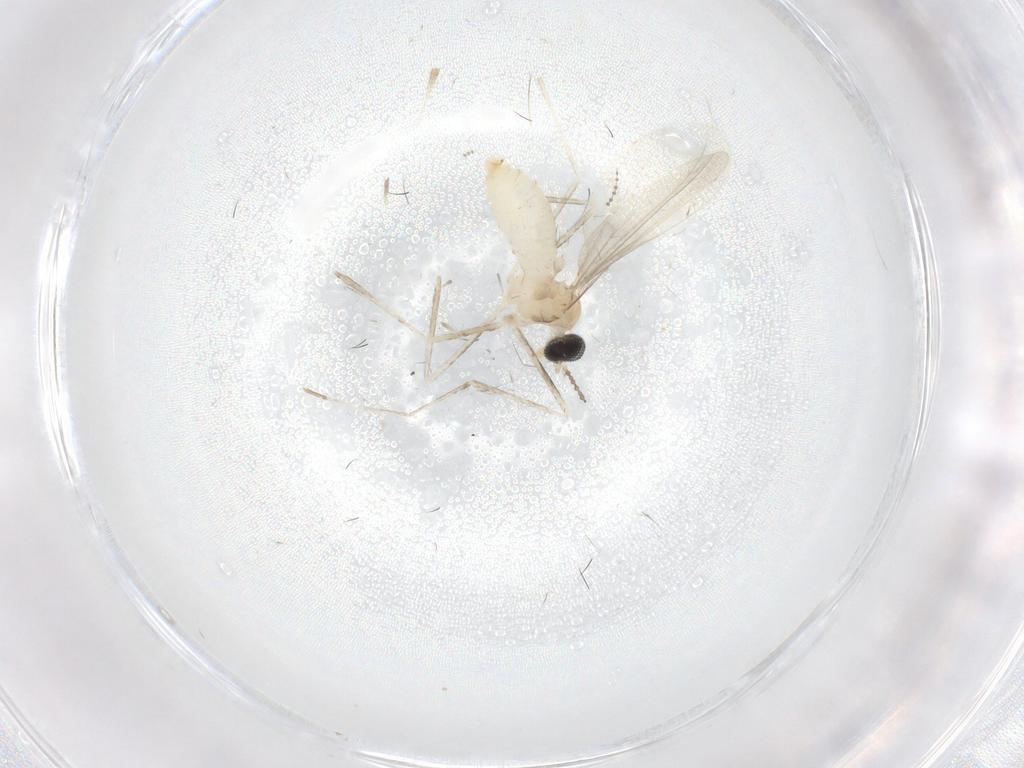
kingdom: Animalia
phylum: Arthropoda
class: Insecta
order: Diptera
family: Cecidomyiidae
